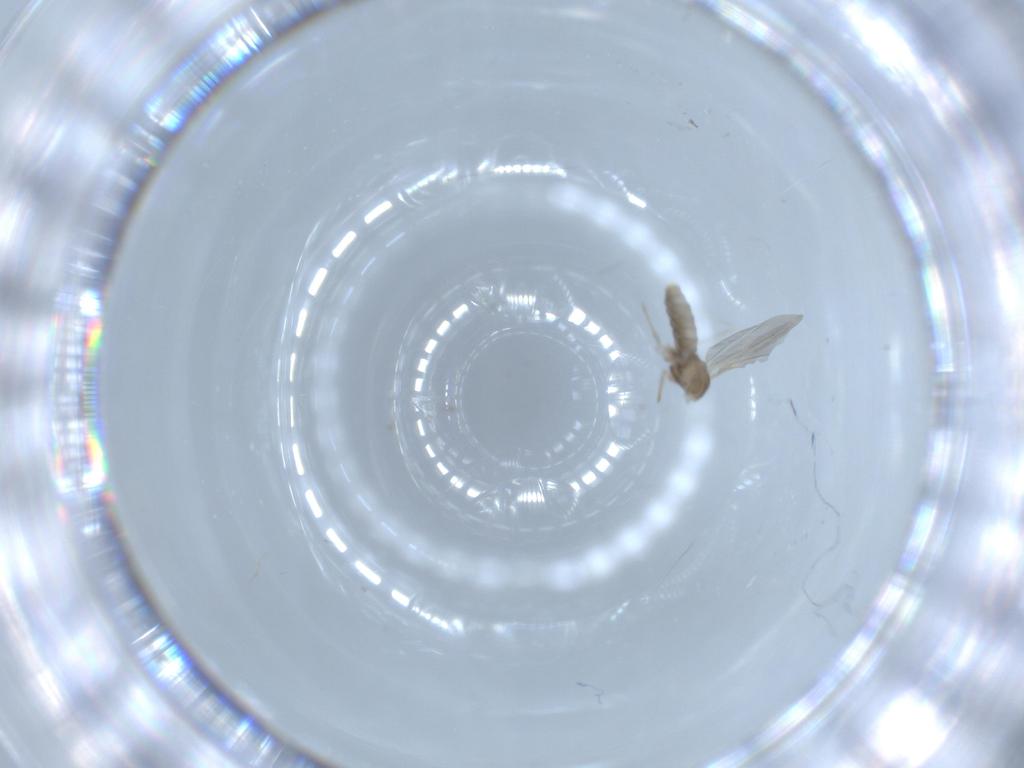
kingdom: Animalia
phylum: Arthropoda
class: Insecta
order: Diptera
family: Cecidomyiidae
